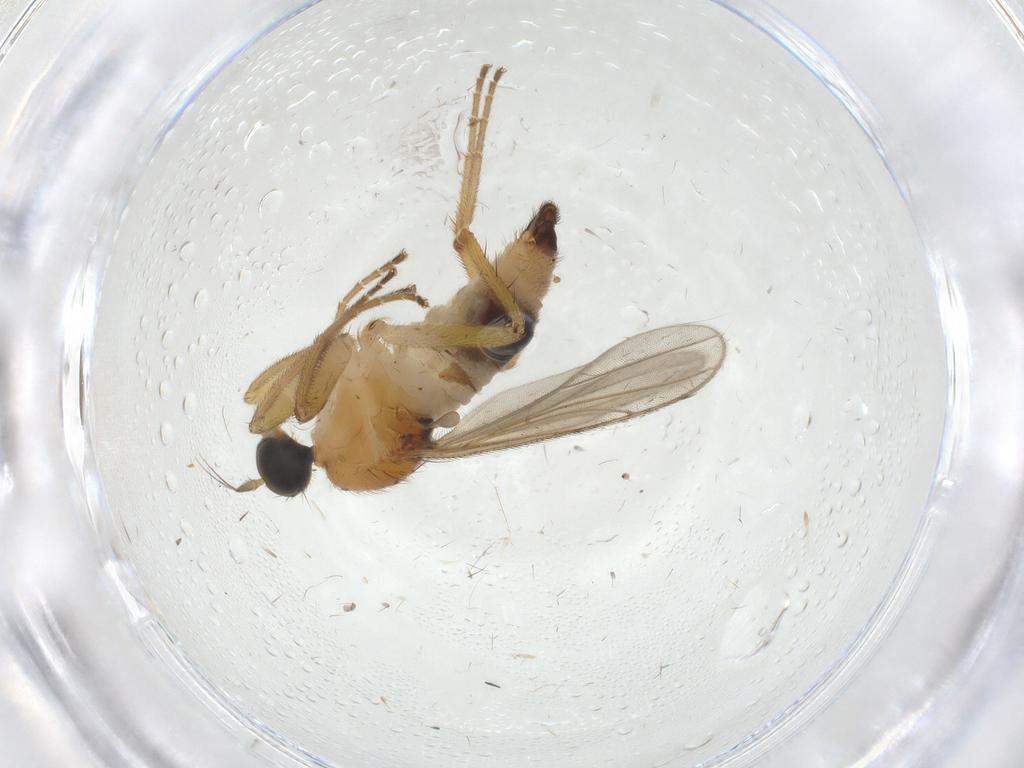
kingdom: Animalia
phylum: Arthropoda
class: Insecta
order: Diptera
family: Hybotidae
